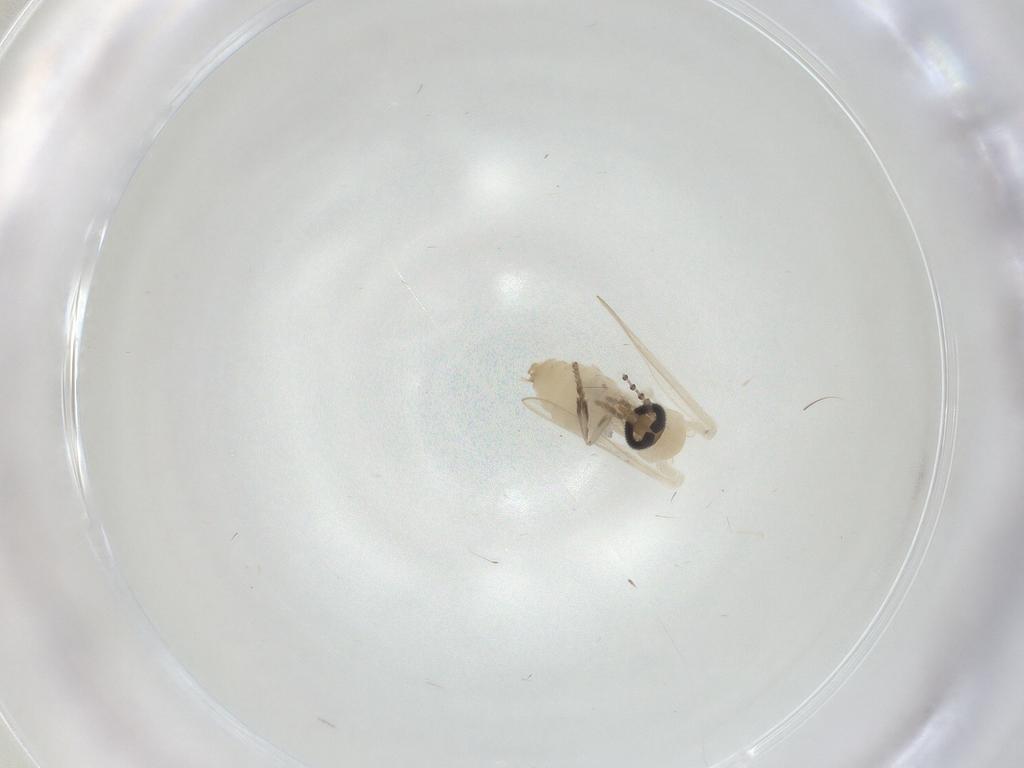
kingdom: Animalia
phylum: Arthropoda
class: Insecta
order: Diptera
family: Psychodidae
